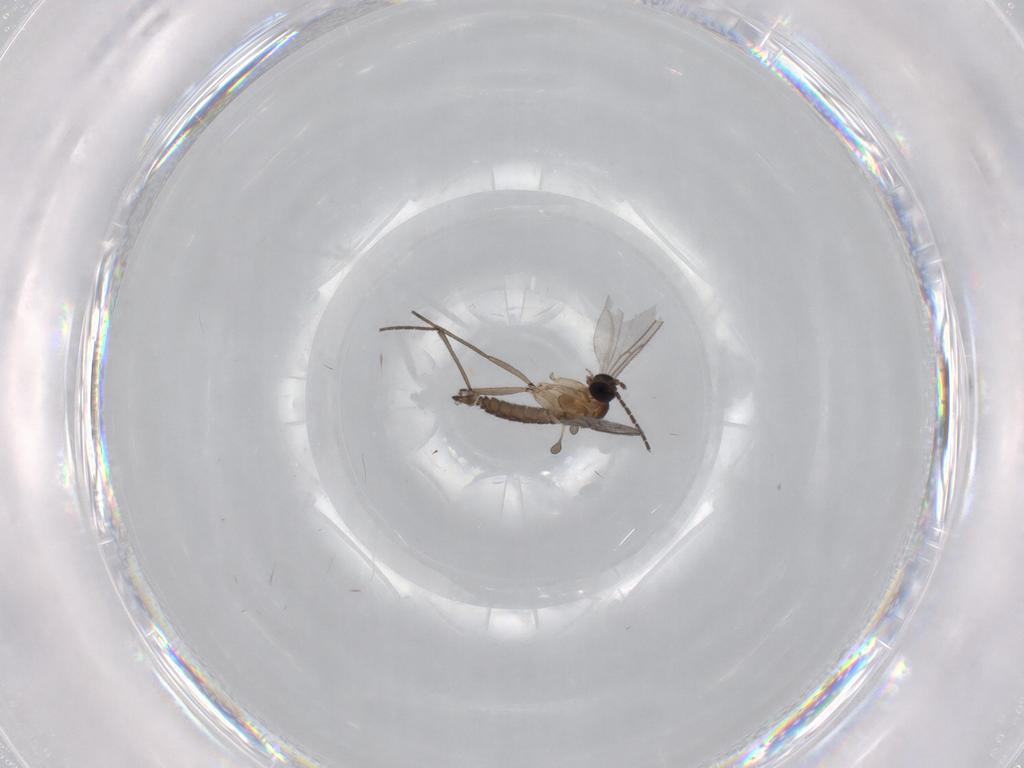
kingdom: Animalia
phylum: Arthropoda
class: Insecta
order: Diptera
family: Sciaridae
